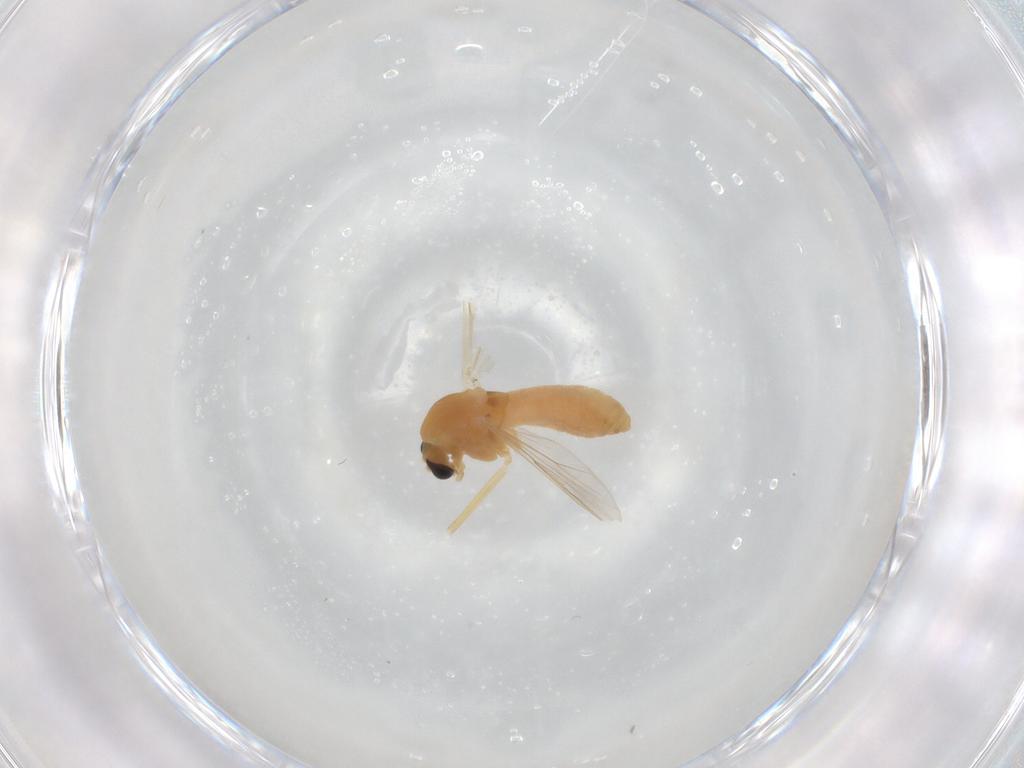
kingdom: Animalia
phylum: Arthropoda
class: Insecta
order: Diptera
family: Chironomidae
